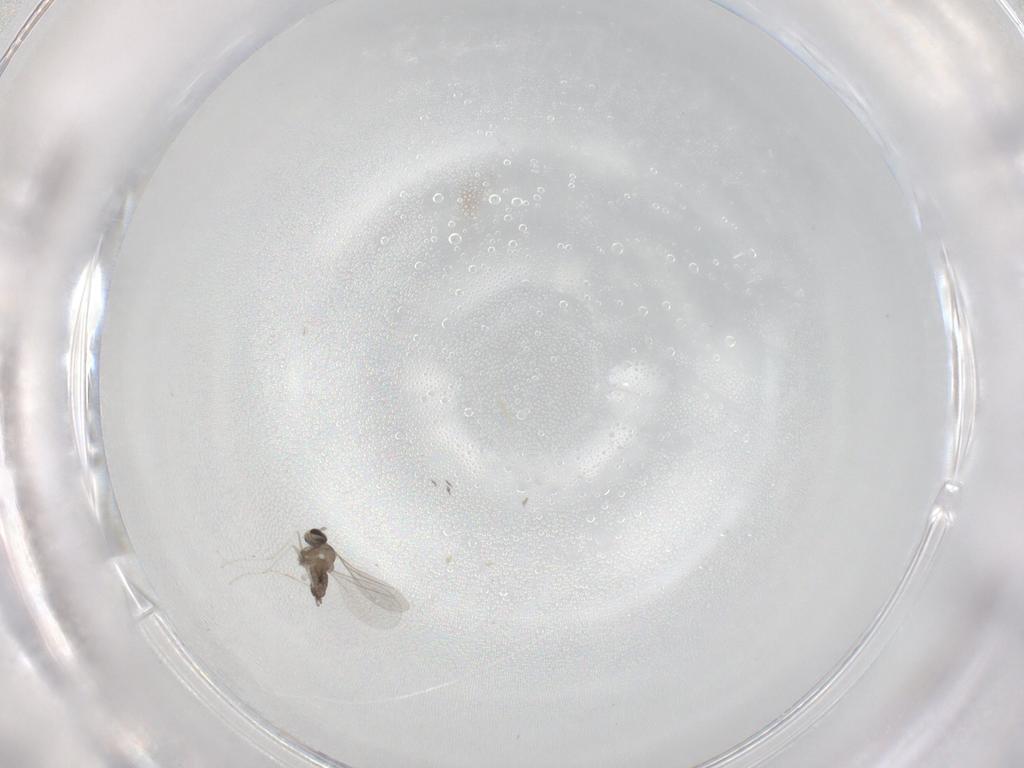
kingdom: Animalia
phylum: Arthropoda
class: Insecta
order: Diptera
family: Cecidomyiidae
